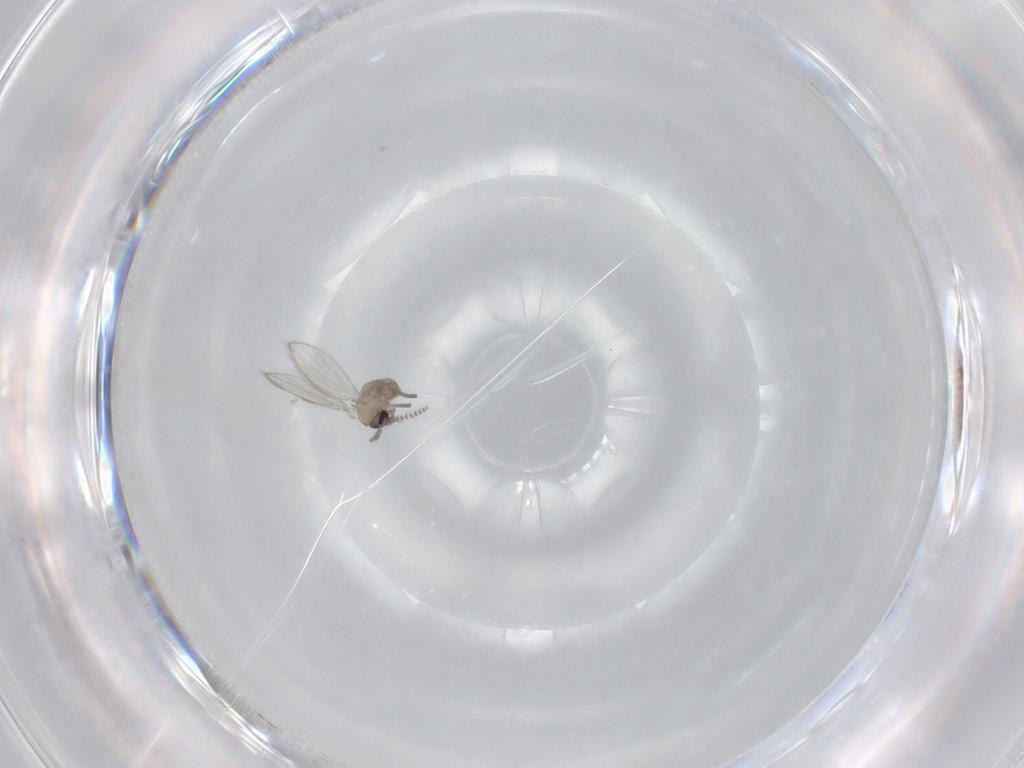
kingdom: Animalia
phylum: Arthropoda
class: Insecta
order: Diptera
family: Psychodidae
